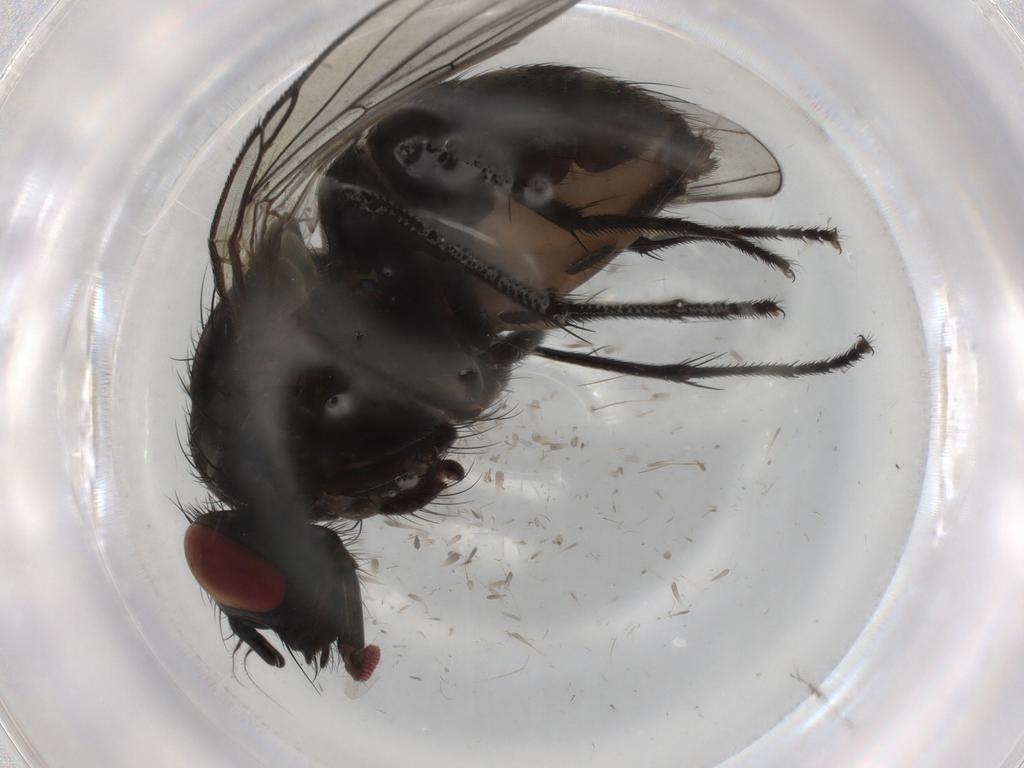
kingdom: Animalia
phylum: Arthropoda
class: Insecta
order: Diptera
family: Muscidae
